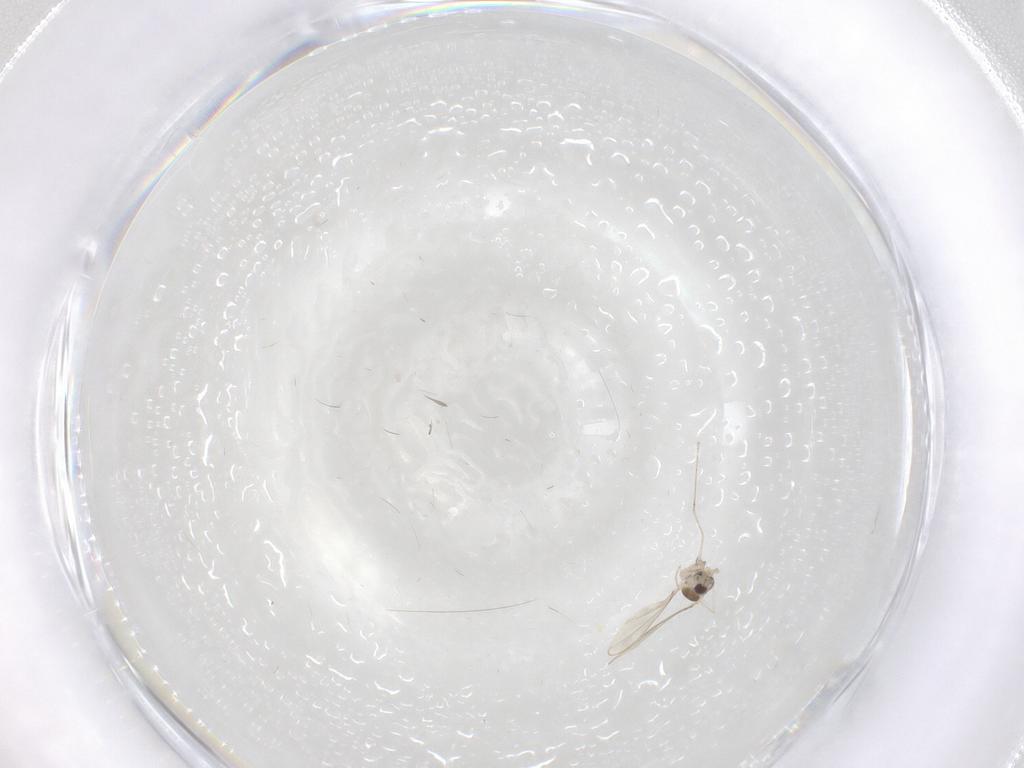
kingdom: Animalia
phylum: Arthropoda
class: Insecta
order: Diptera
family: Cecidomyiidae
